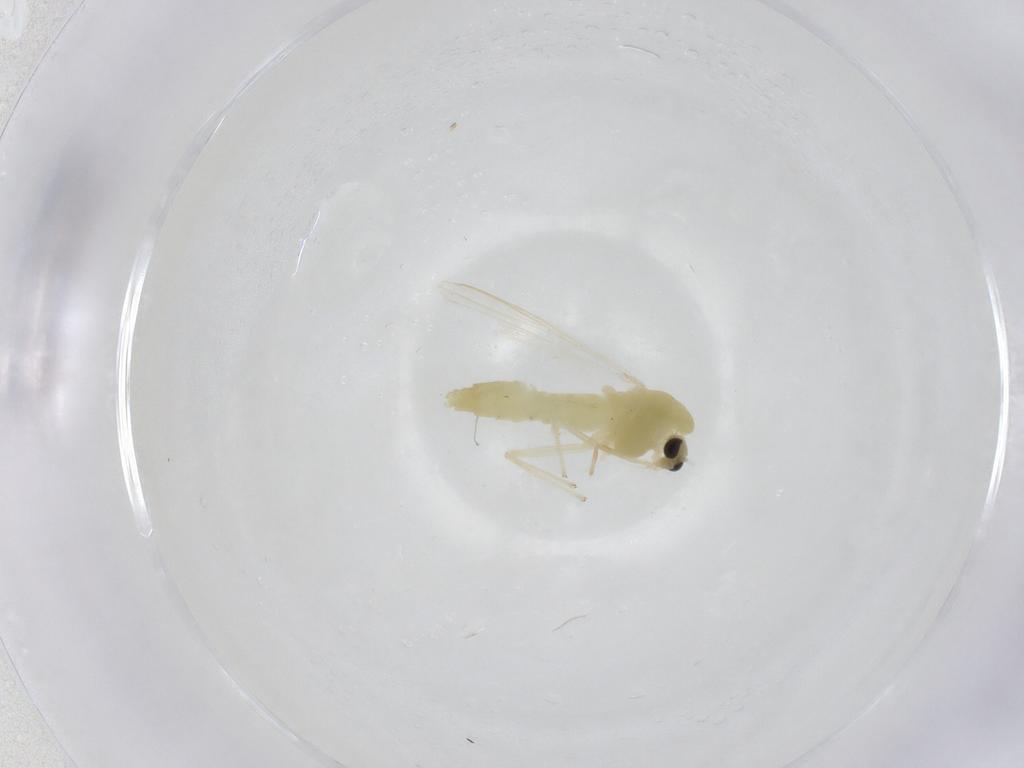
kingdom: Animalia
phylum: Arthropoda
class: Insecta
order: Diptera
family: Chironomidae
